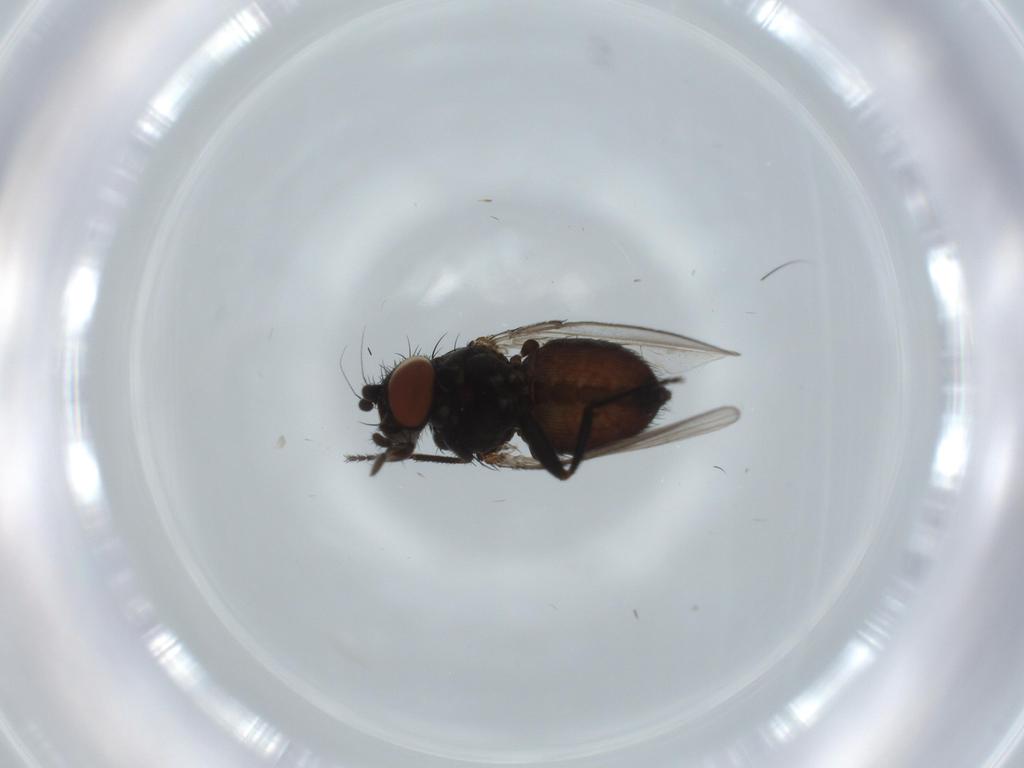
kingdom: Animalia
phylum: Arthropoda
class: Insecta
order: Diptera
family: Milichiidae
